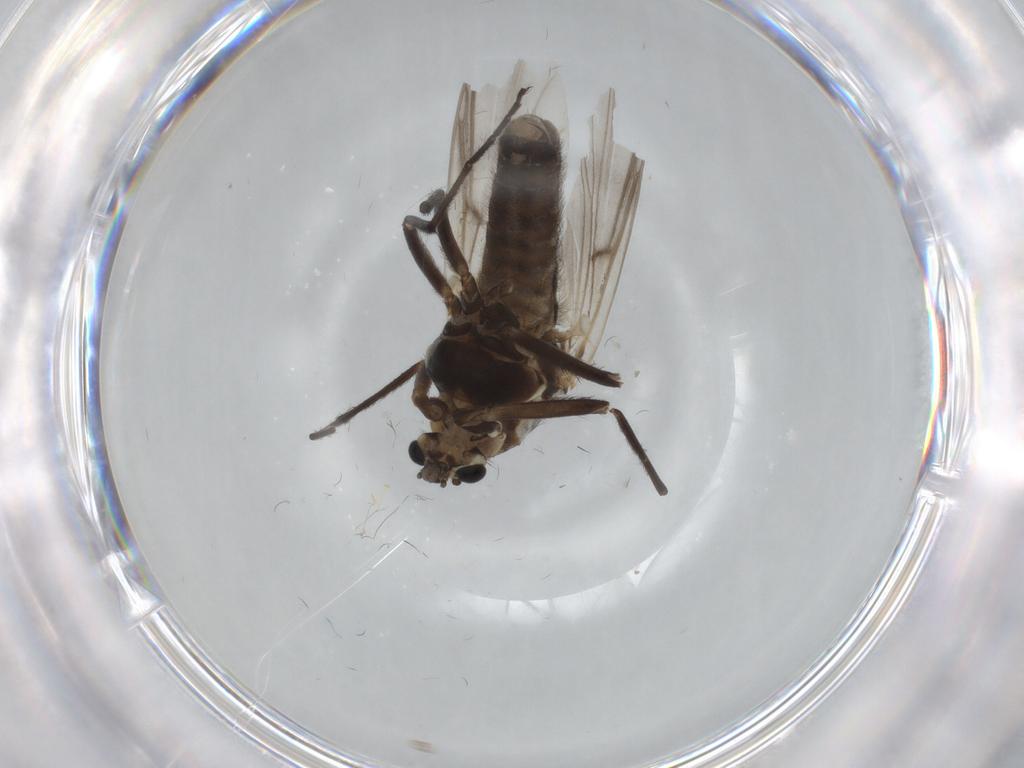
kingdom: Animalia
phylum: Arthropoda
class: Insecta
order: Diptera
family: Chironomidae
